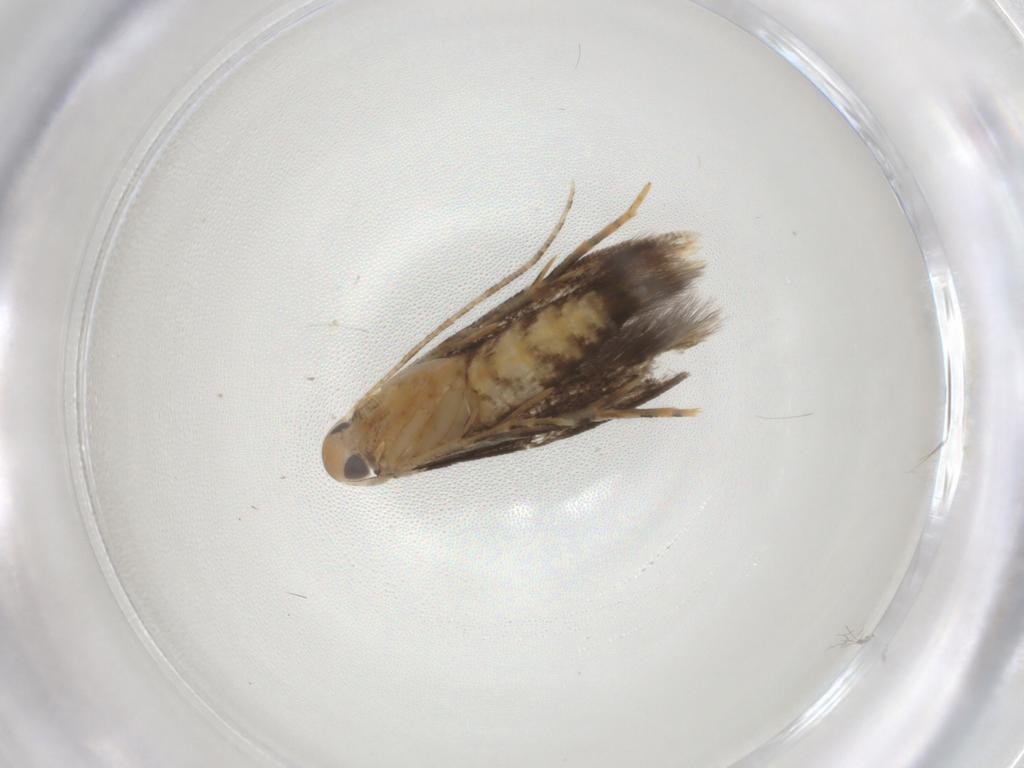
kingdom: Animalia
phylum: Arthropoda
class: Insecta
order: Lepidoptera
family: Momphidae
